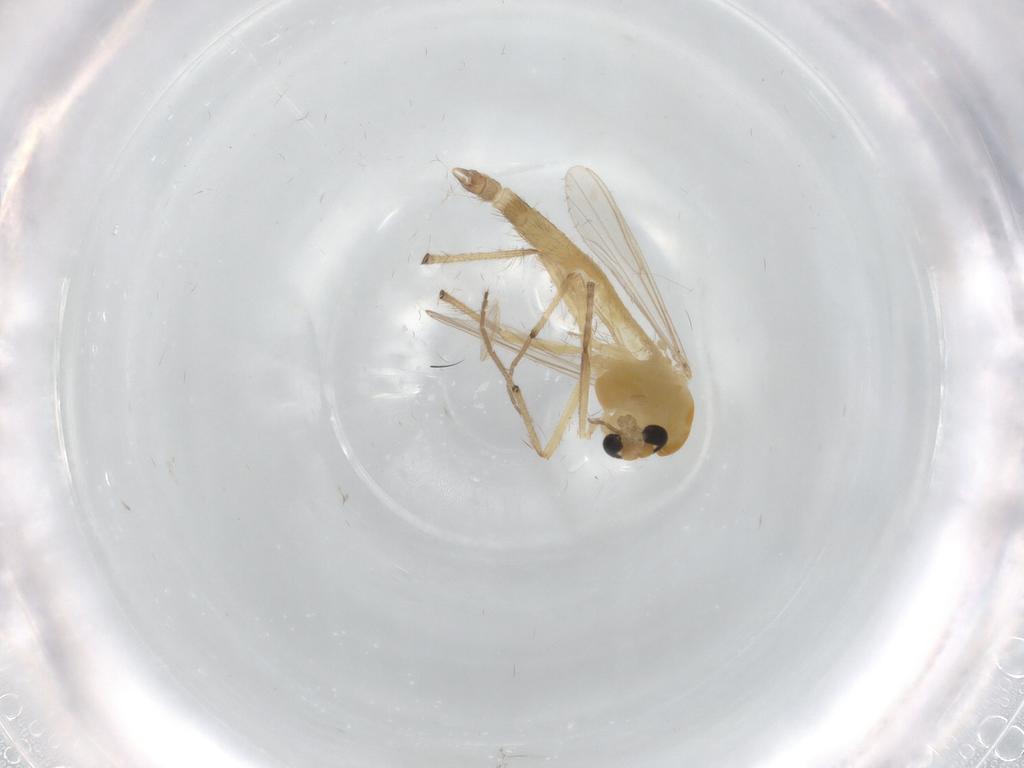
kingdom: Animalia
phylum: Arthropoda
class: Insecta
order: Diptera
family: Chironomidae
